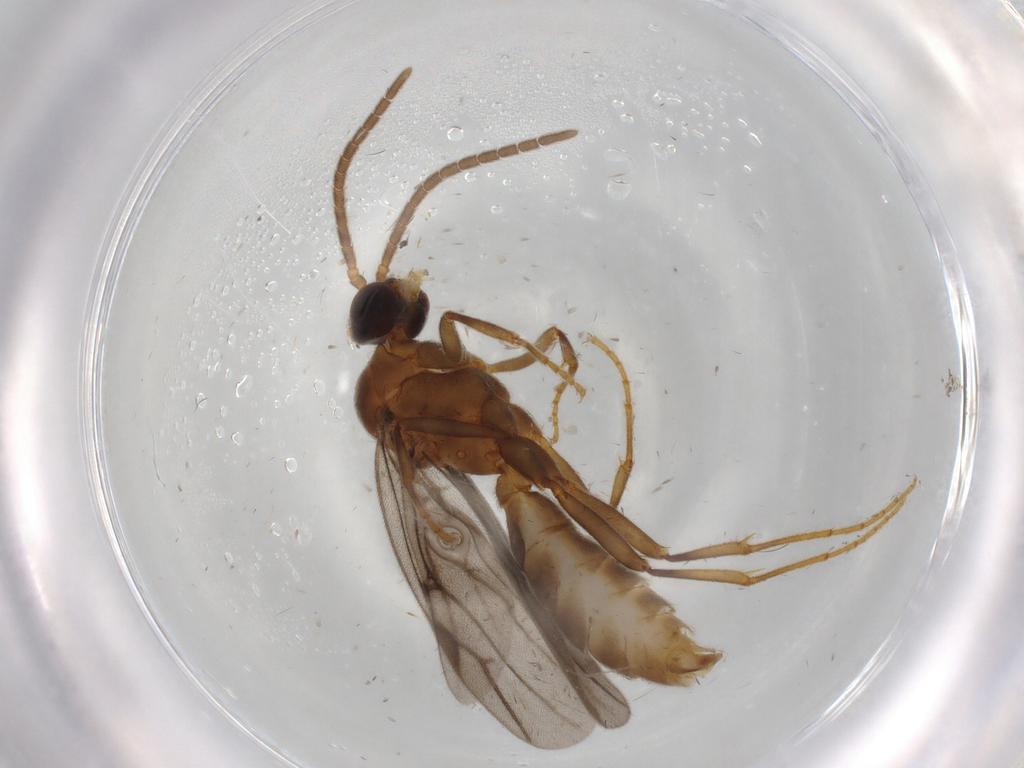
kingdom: Animalia
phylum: Arthropoda
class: Insecta
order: Hymenoptera
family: Formicidae
